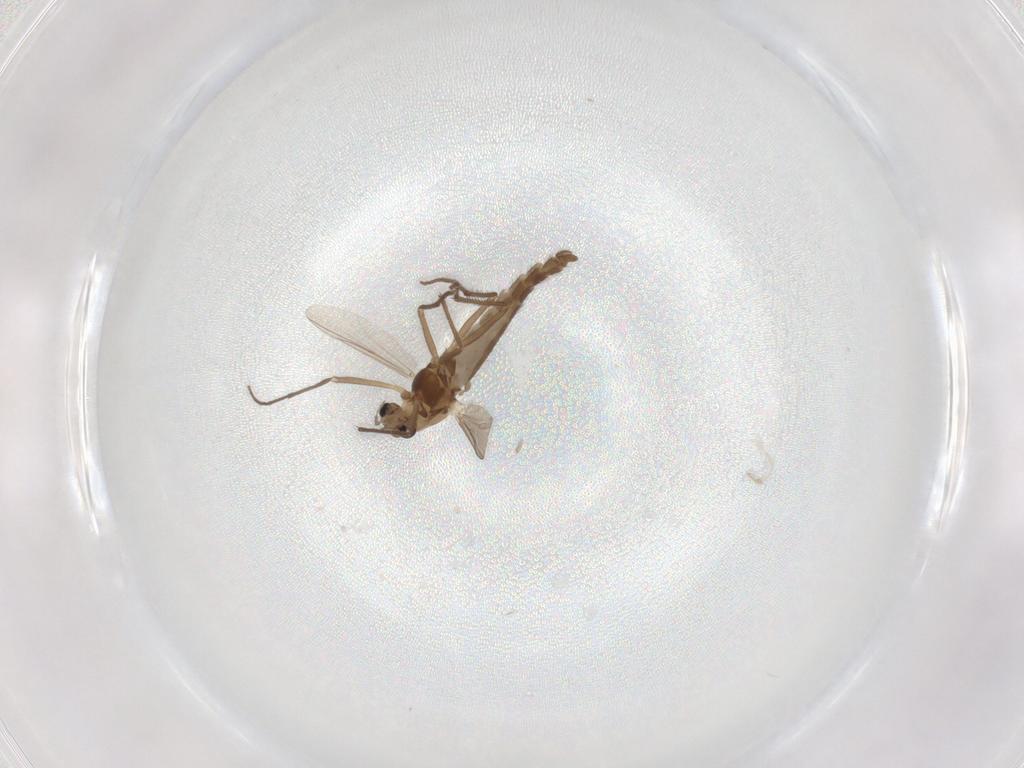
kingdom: Animalia
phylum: Arthropoda
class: Insecta
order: Diptera
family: Chironomidae
